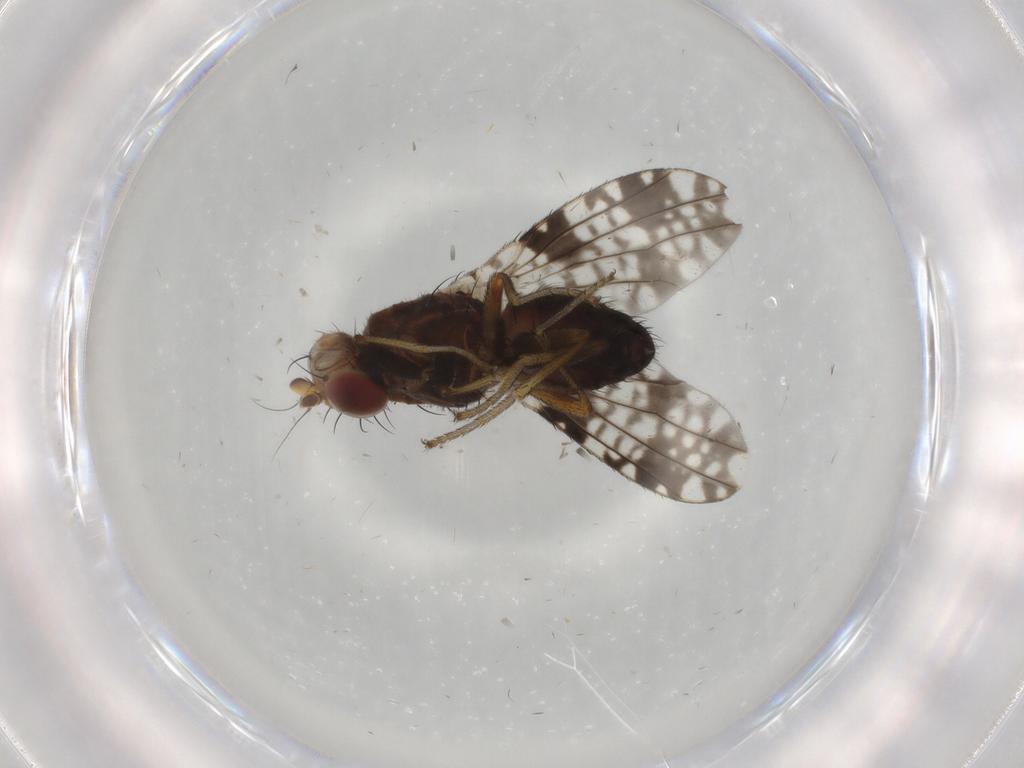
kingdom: Animalia
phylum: Arthropoda
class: Insecta
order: Diptera
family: Tephritidae
